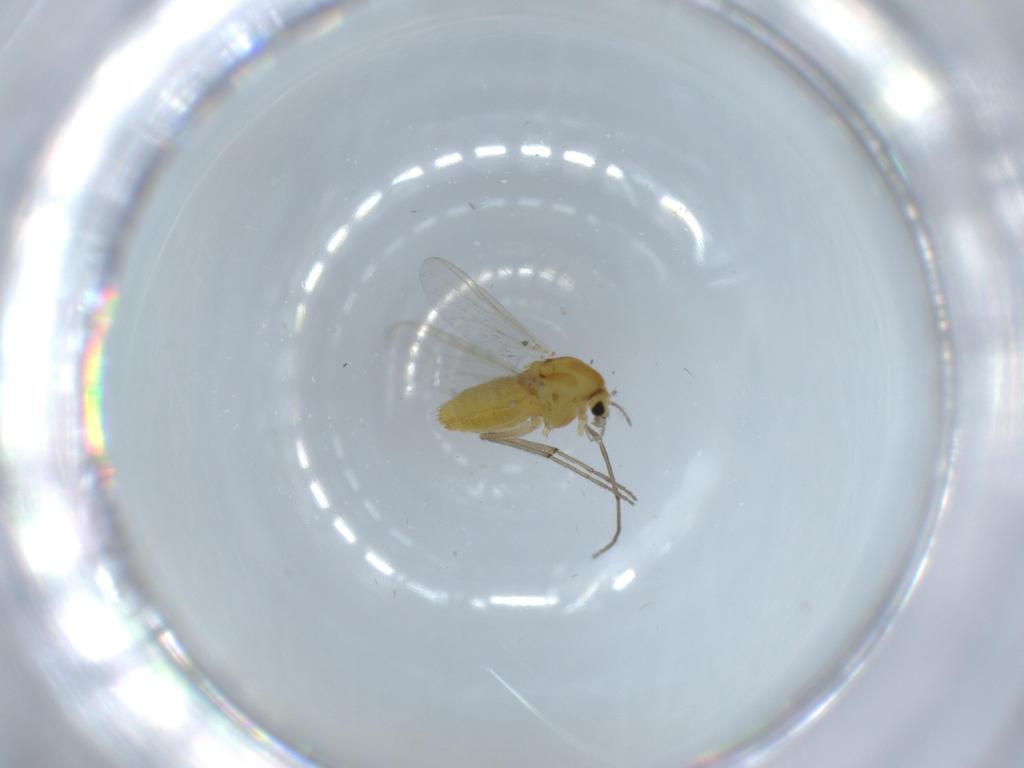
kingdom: Animalia
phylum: Arthropoda
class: Insecta
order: Diptera
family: Chironomidae
